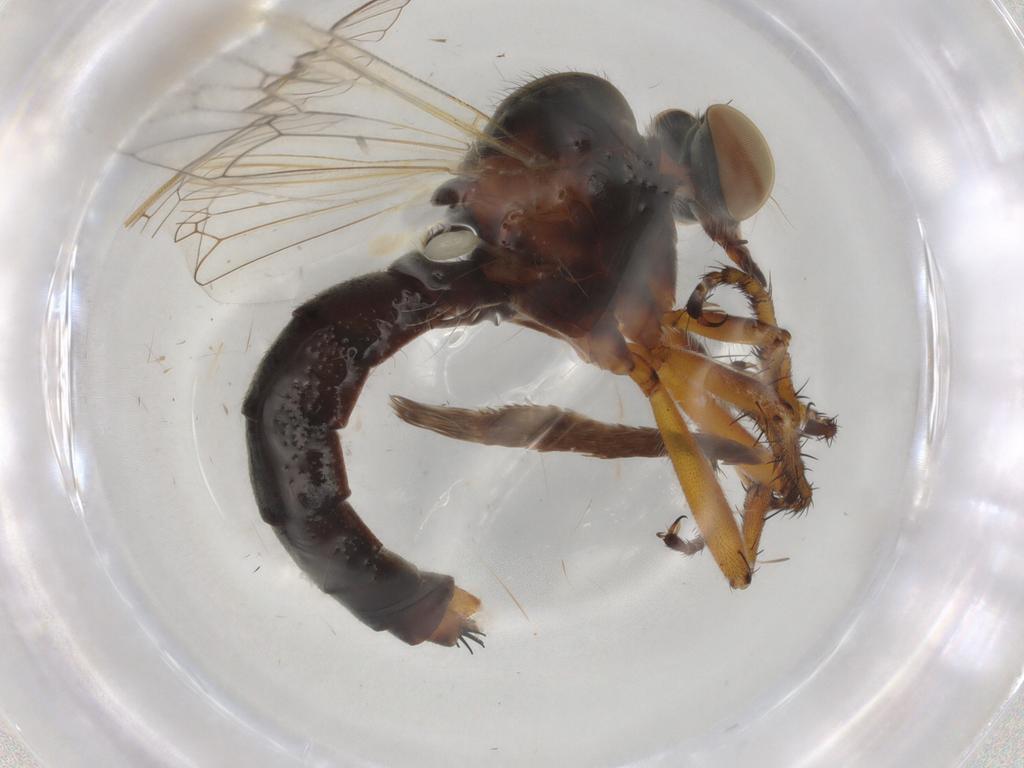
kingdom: Animalia
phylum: Arthropoda
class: Insecta
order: Diptera
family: Asilidae
